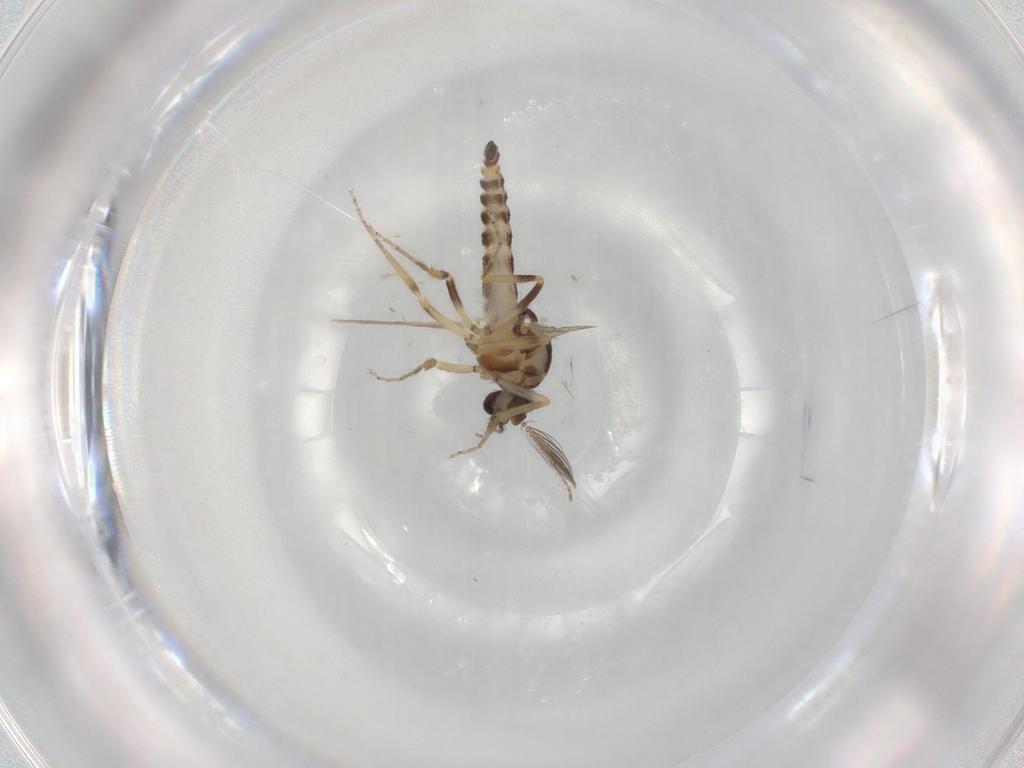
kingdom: Animalia
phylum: Arthropoda
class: Insecta
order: Diptera
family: Ceratopogonidae
